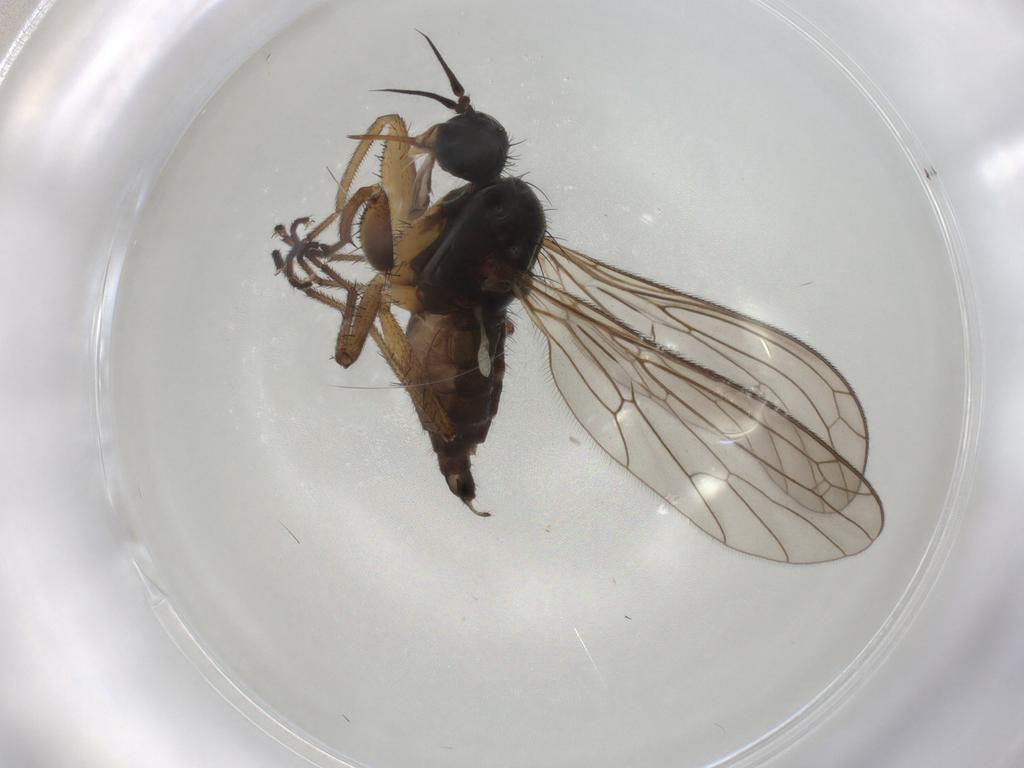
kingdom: Animalia
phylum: Arthropoda
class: Insecta
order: Diptera
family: Empididae
